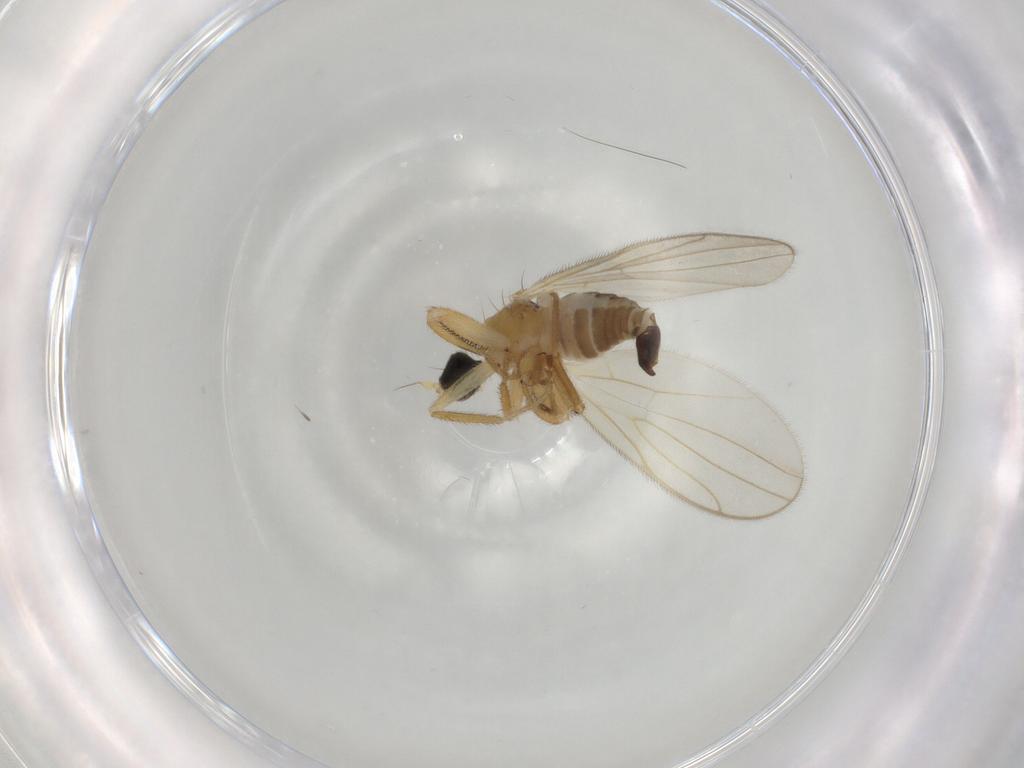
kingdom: Animalia
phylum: Arthropoda
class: Insecta
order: Diptera
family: Hybotidae
